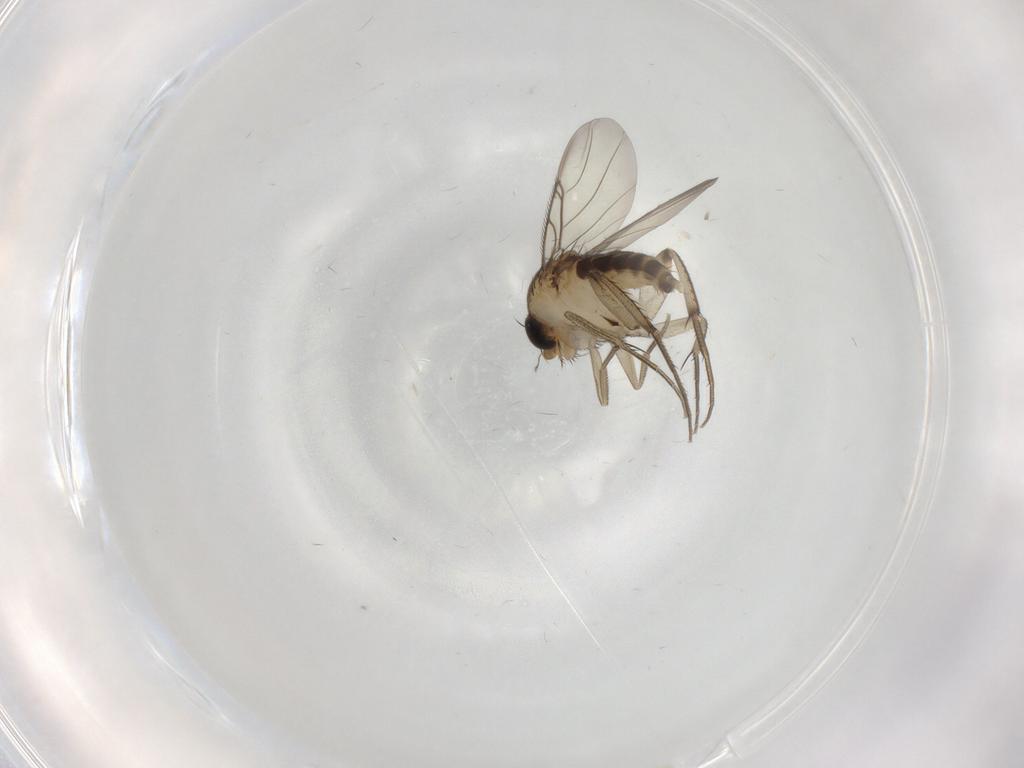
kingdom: Animalia
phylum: Arthropoda
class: Insecta
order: Diptera
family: Phoridae
